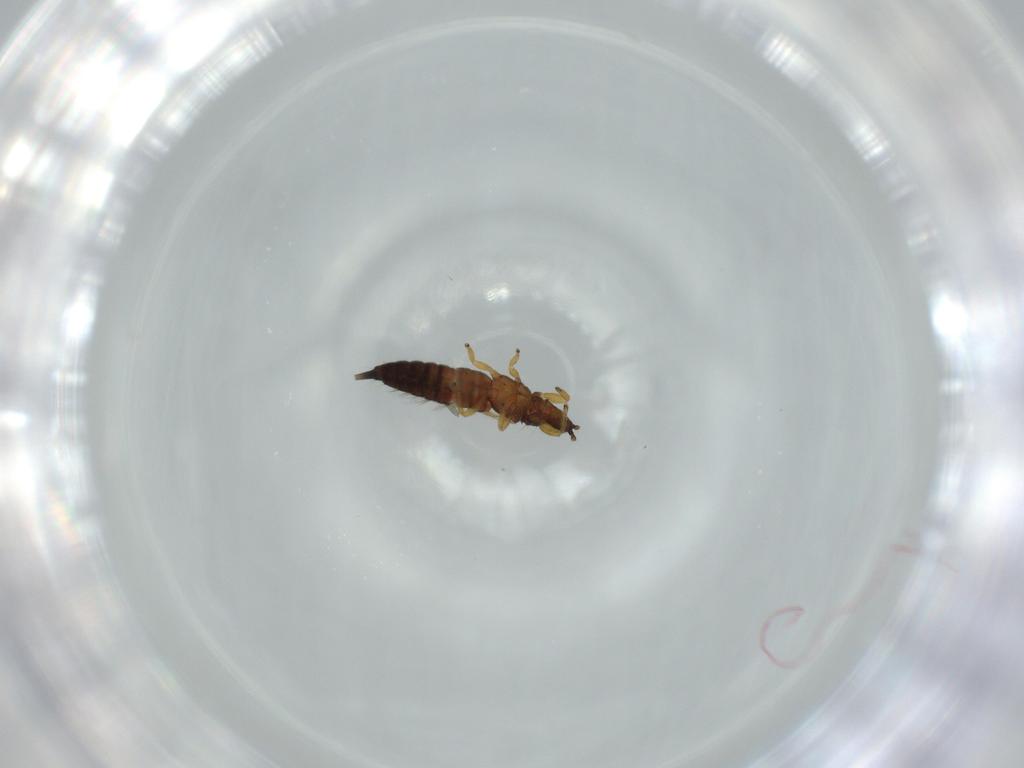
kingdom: Animalia
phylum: Arthropoda
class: Insecta
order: Thysanoptera
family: Phlaeothripidae
